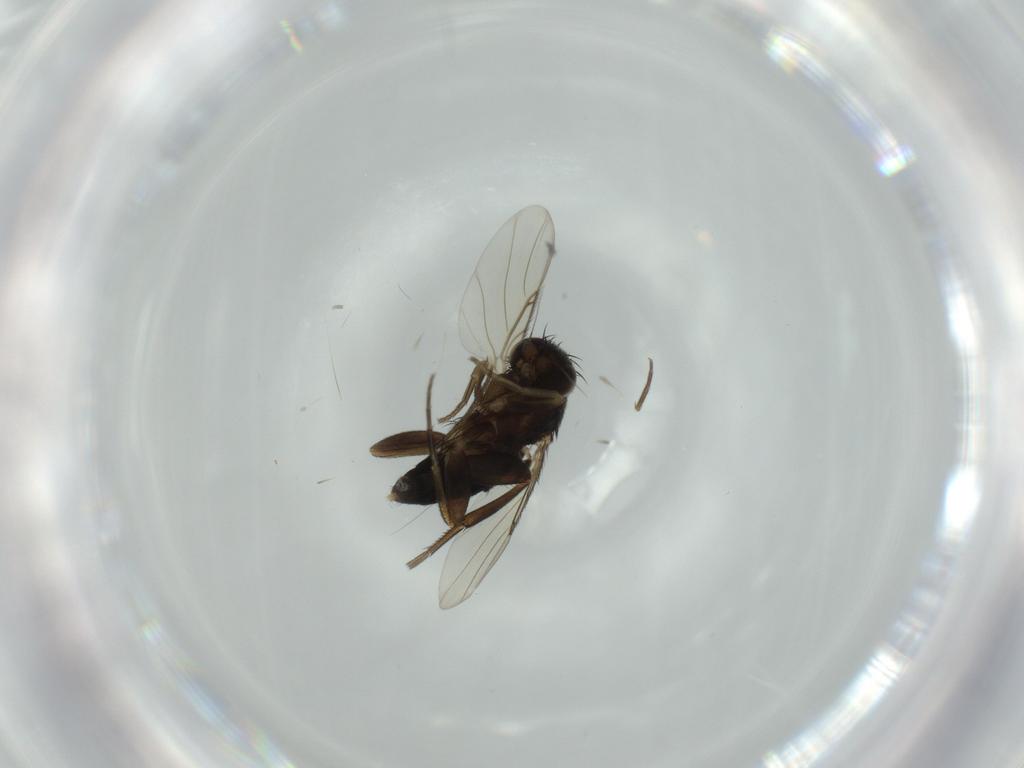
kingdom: Animalia
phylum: Arthropoda
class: Insecta
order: Diptera
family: Phoridae
